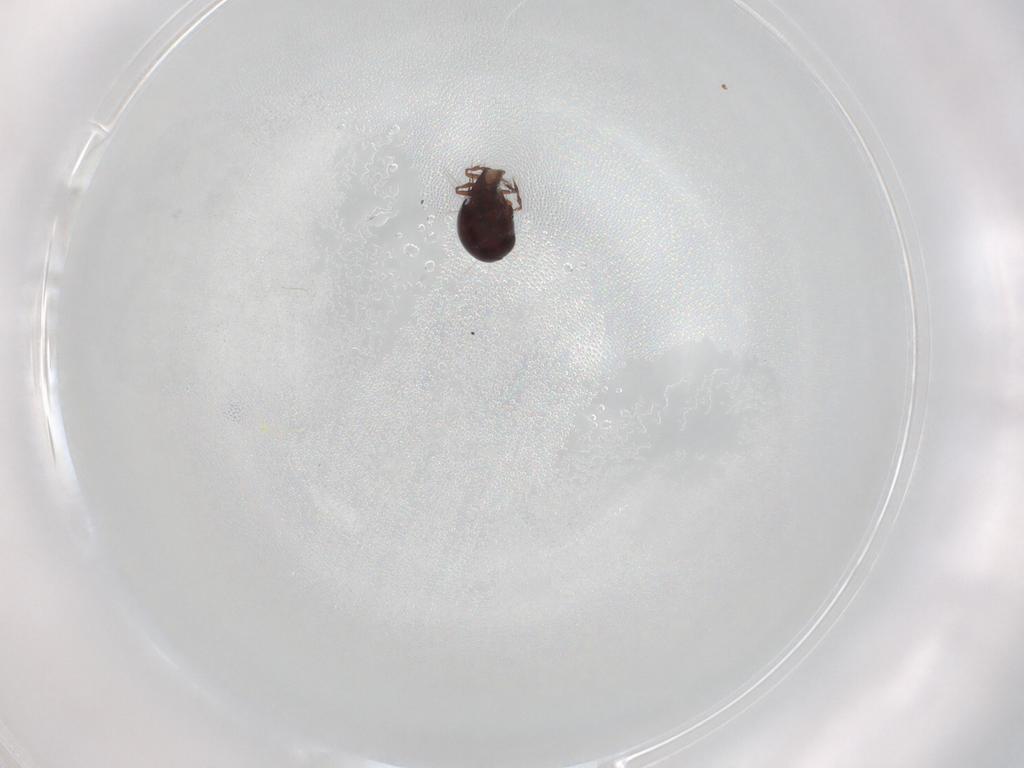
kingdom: Animalia
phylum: Arthropoda
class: Arachnida
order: Sarcoptiformes
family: Ceratoppiidae
